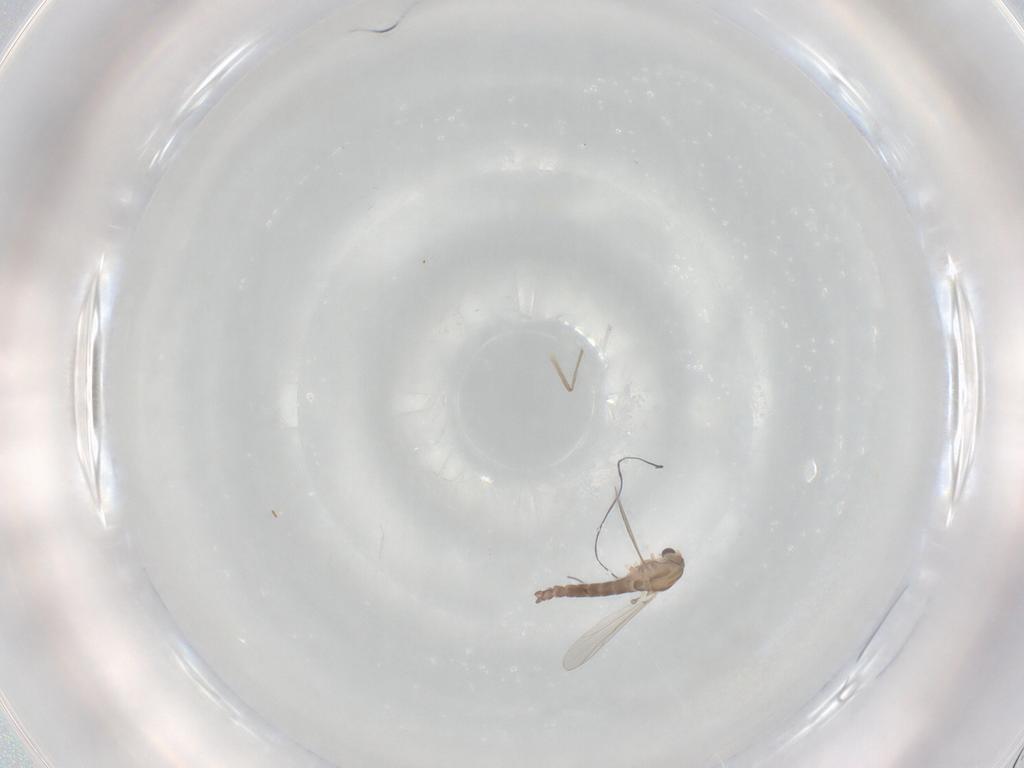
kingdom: Animalia
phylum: Arthropoda
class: Insecta
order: Diptera
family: Chironomidae
